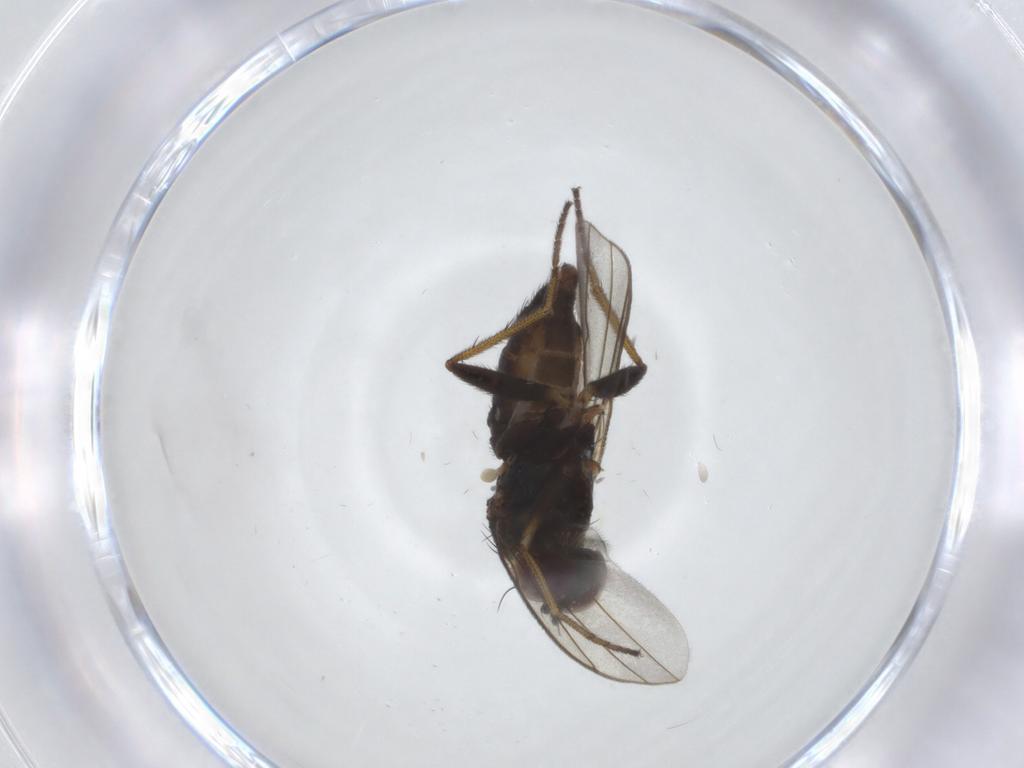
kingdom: Animalia
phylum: Arthropoda
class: Insecta
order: Diptera
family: Dolichopodidae
